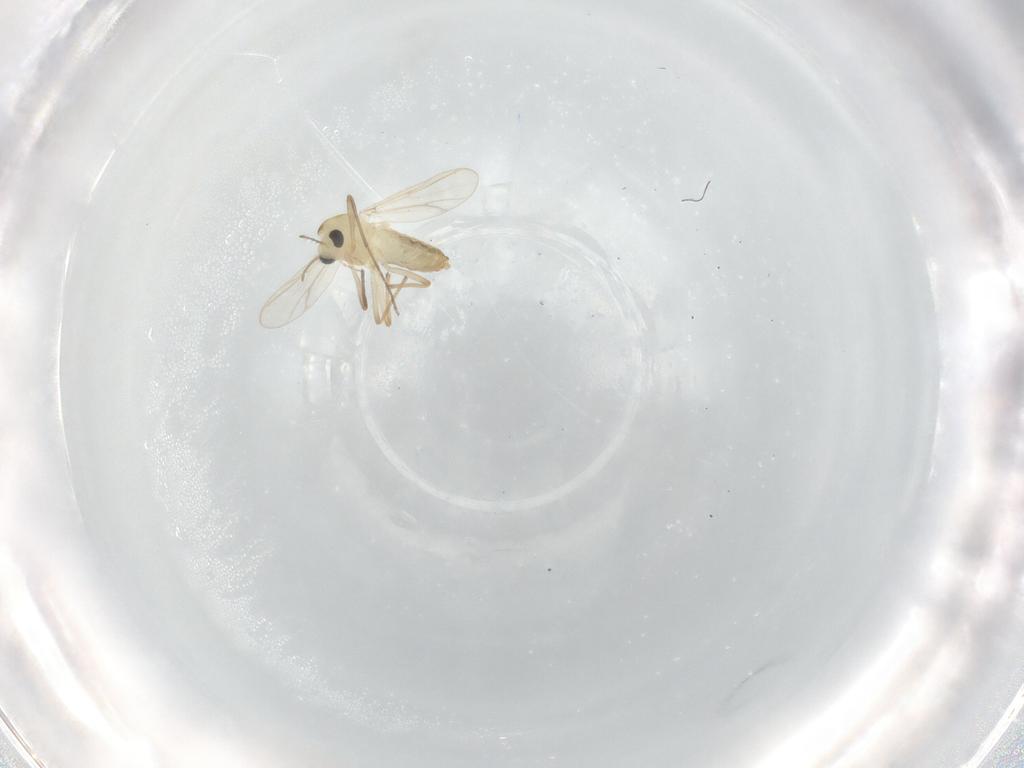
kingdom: Animalia
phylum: Arthropoda
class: Insecta
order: Diptera
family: Chironomidae
